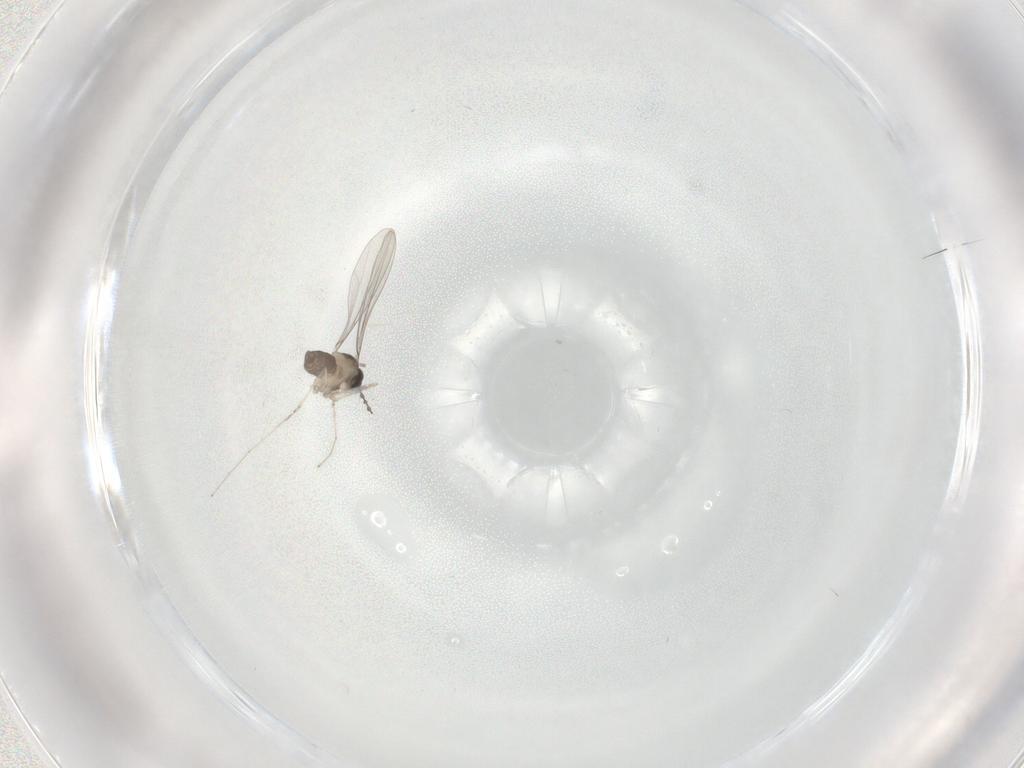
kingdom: Animalia
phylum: Arthropoda
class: Insecta
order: Diptera
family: Cecidomyiidae
